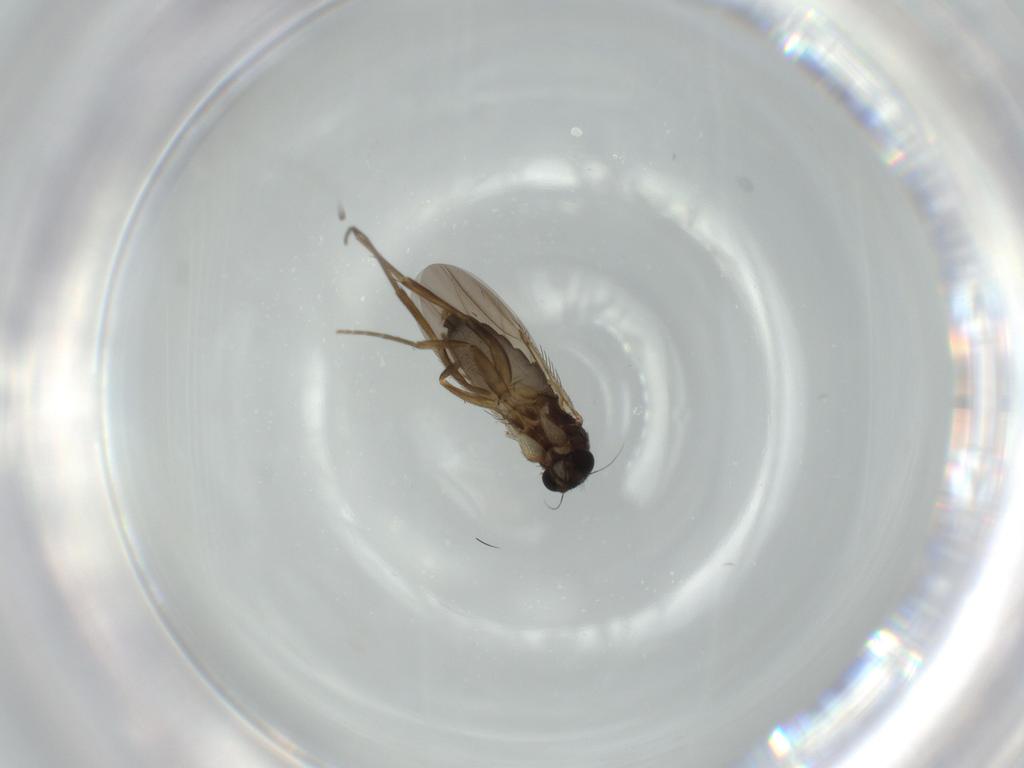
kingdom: Animalia
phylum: Arthropoda
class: Insecta
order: Diptera
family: Phoridae
